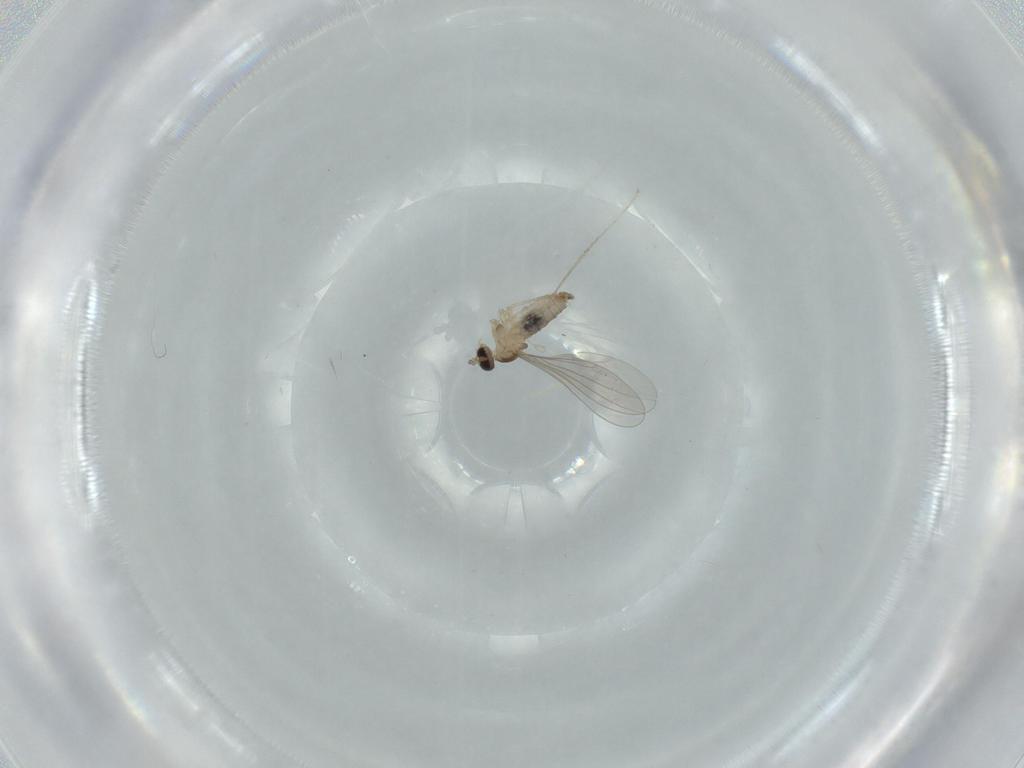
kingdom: Animalia
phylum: Arthropoda
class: Insecta
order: Diptera
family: Cecidomyiidae
